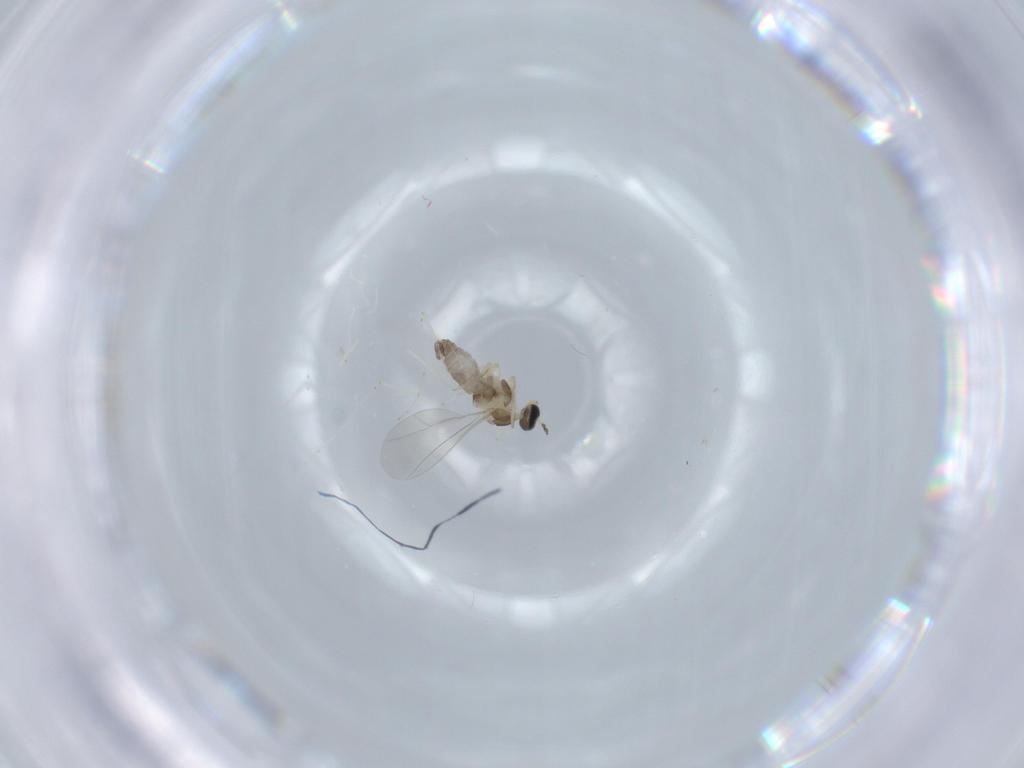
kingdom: Animalia
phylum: Arthropoda
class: Insecta
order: Diptera
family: Cecidomyiidae
